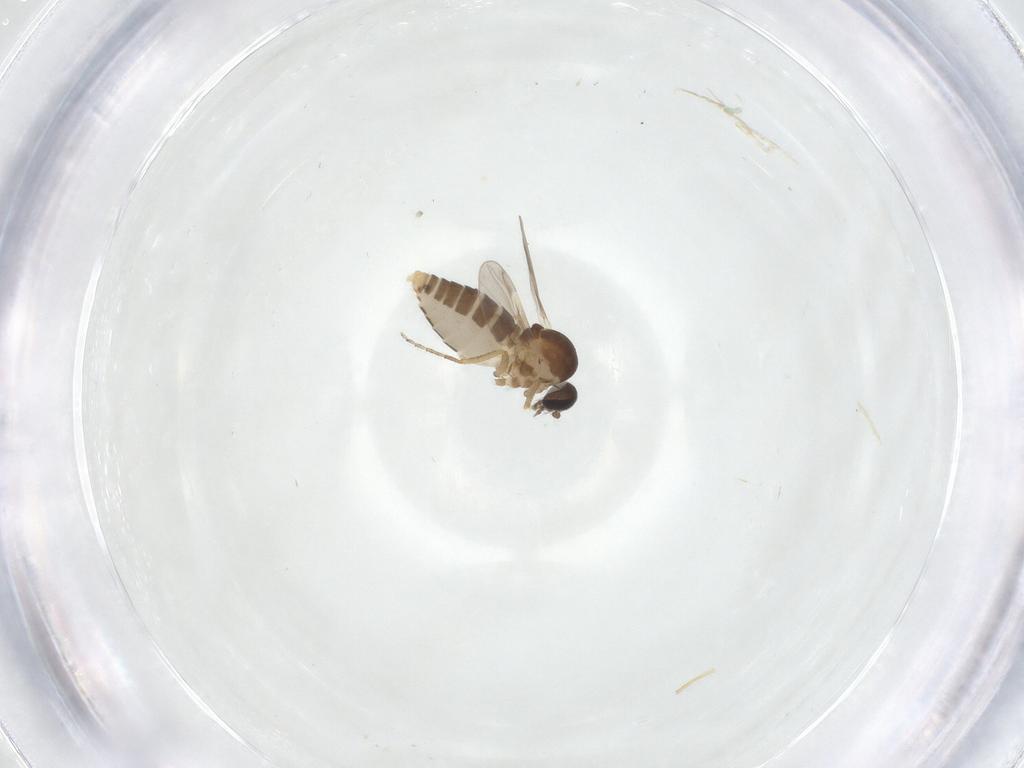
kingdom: Animalia
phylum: Arthropoda
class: Insecta
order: Diptera
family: Ceratopogonidae
